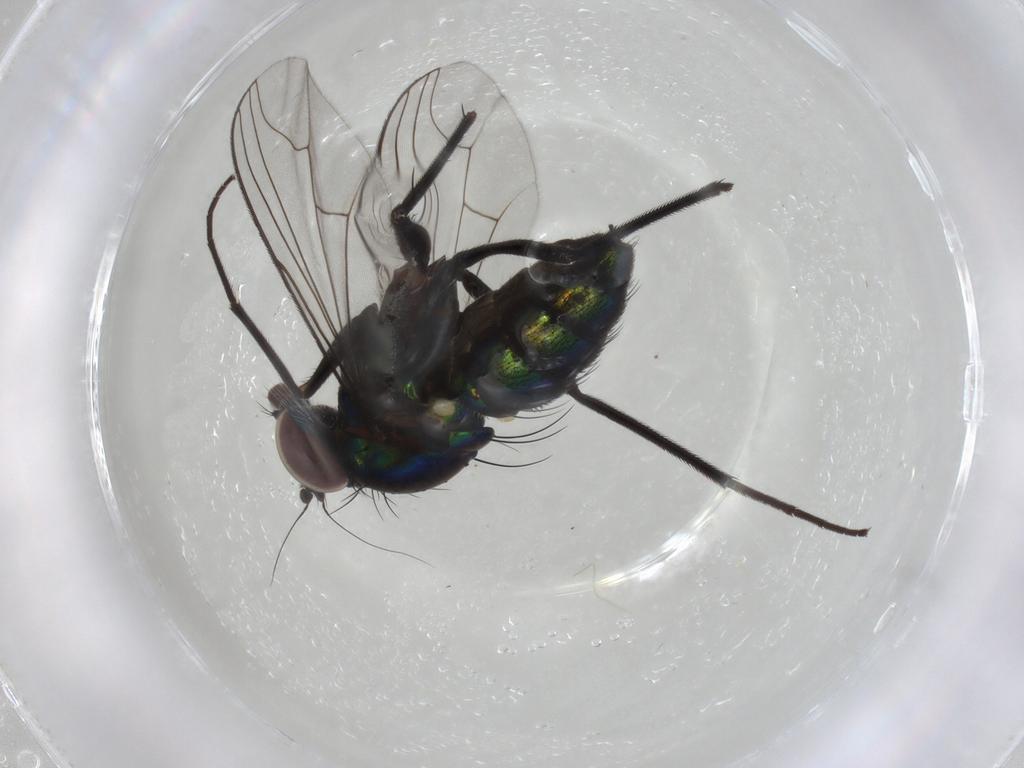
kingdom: Animalia
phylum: Arthropoda
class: Insecta
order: Diptera
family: Dolichopodidae
